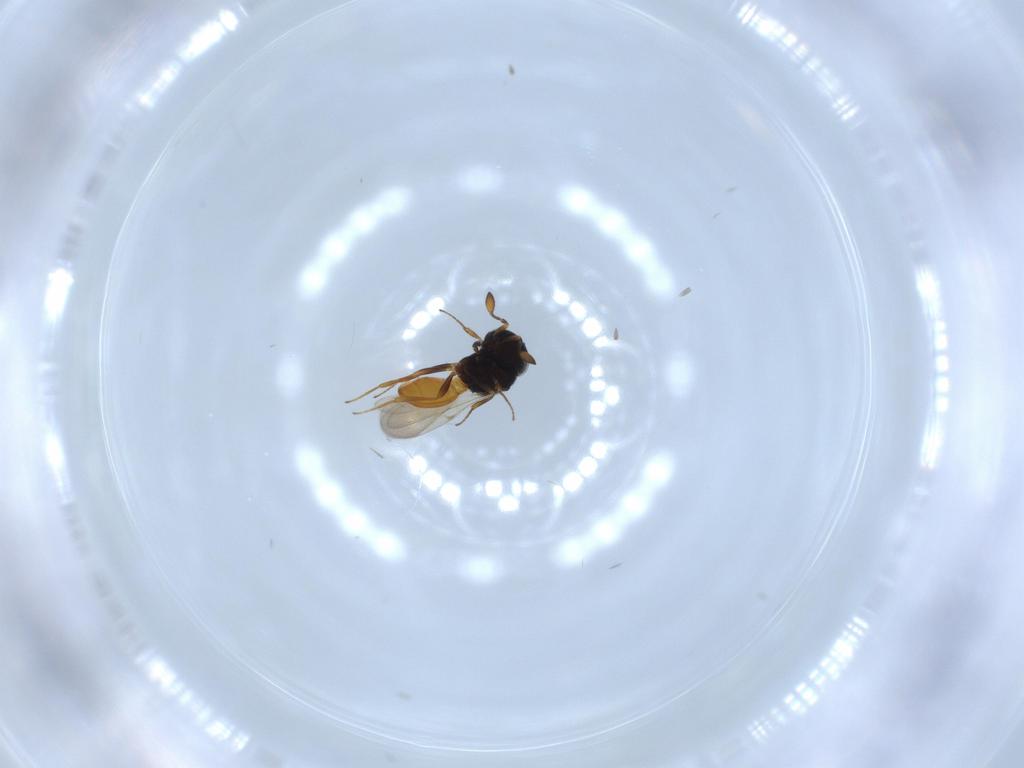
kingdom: Animalia
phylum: Arthropoda
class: Insecta
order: Hymenoptera
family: Scelionidae
